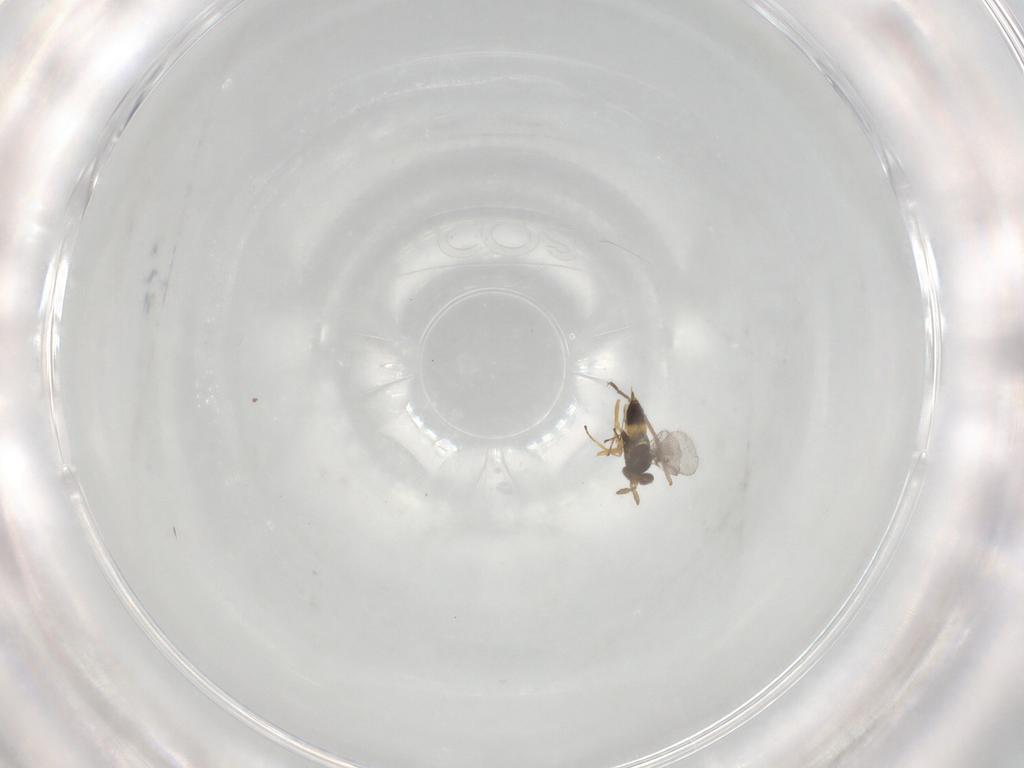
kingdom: Animalia
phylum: Arthropoda
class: Insecta
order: Hymenoptera
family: Eulophidae
